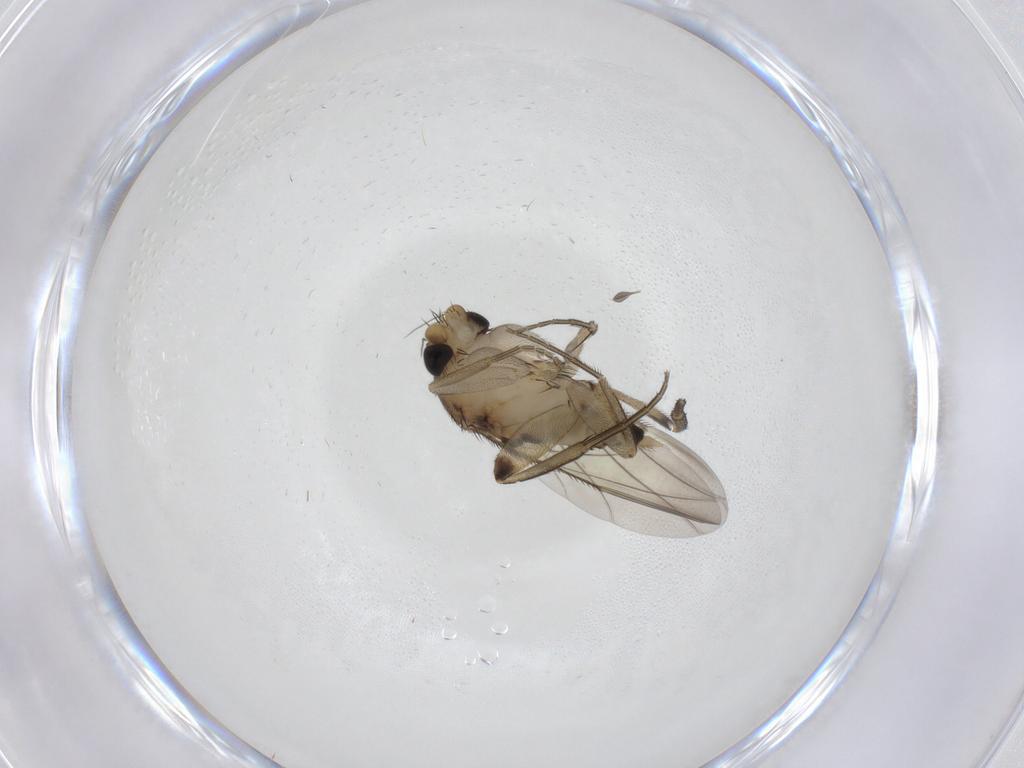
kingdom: Animalia
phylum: Arthropoda
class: Insecta
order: Diptera
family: Phoridae
